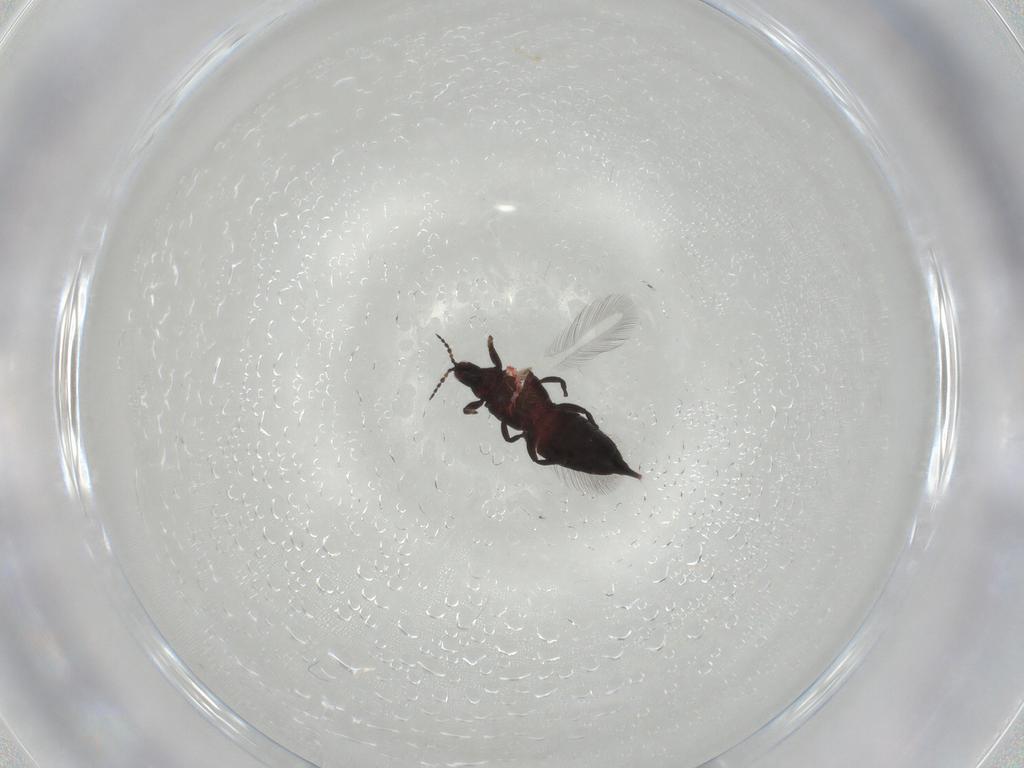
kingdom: Animalia
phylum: Arthropoda
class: Insecta
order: Thysanoptera
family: Phlaeothripidae
